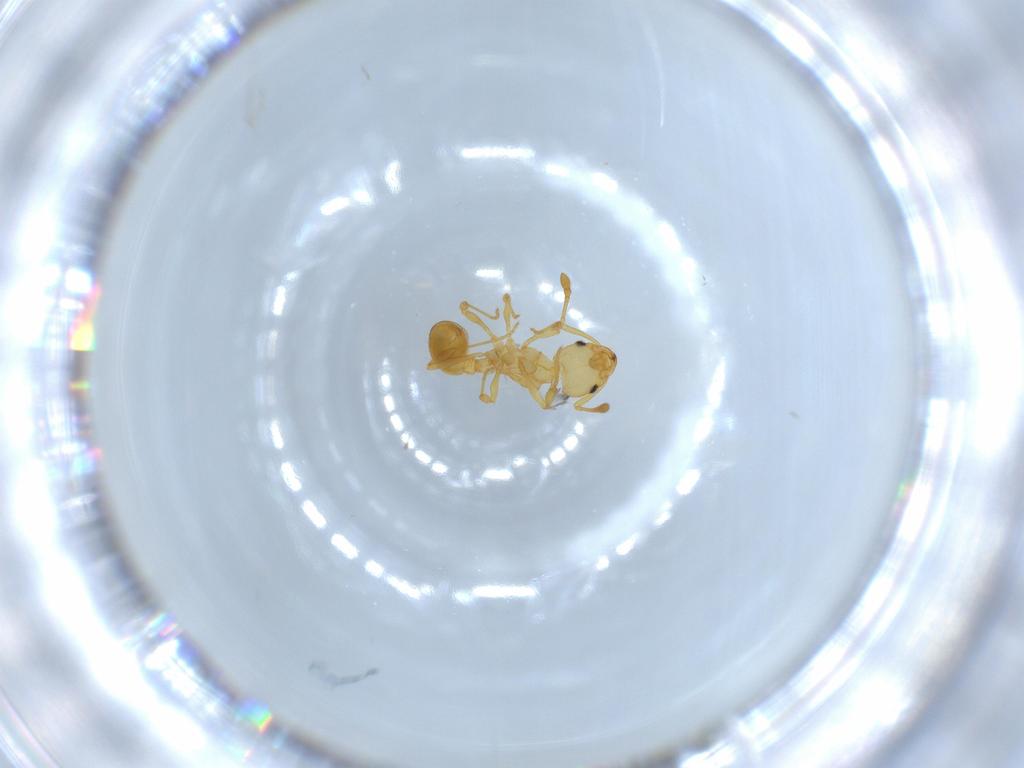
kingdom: Animalia
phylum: Arthropoda
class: Insecta
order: Hymenoptera
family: Formicidae
